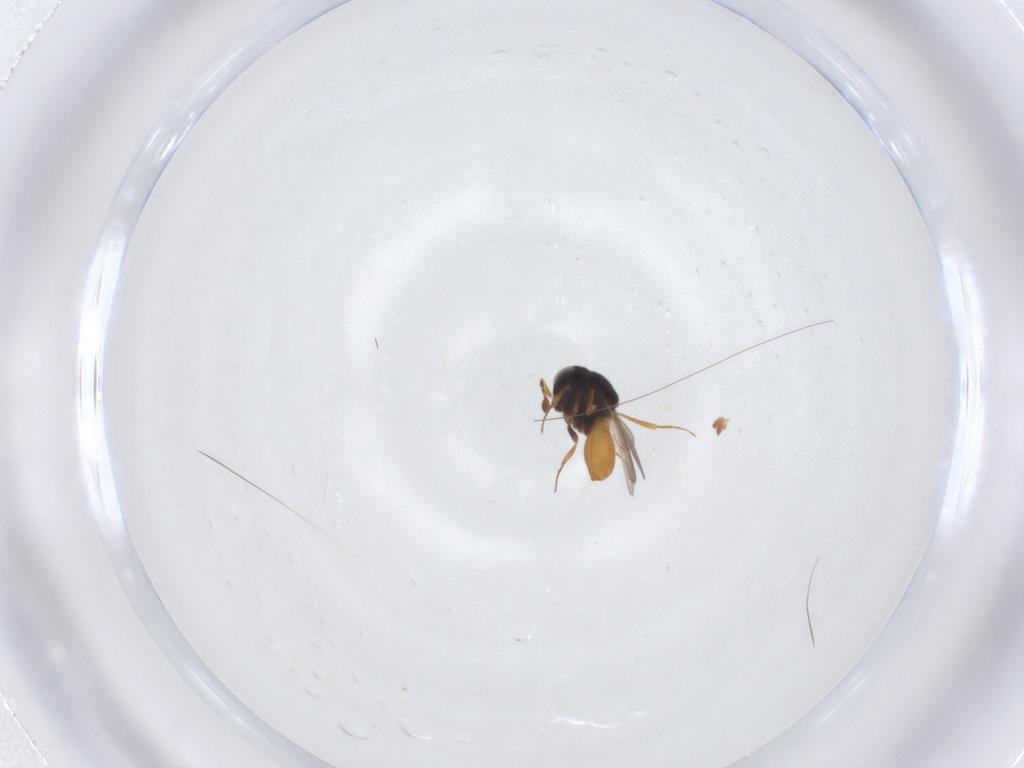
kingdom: Animalia
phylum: Arthropoda
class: Insecta
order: Hymenoptera
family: Scelionidae
